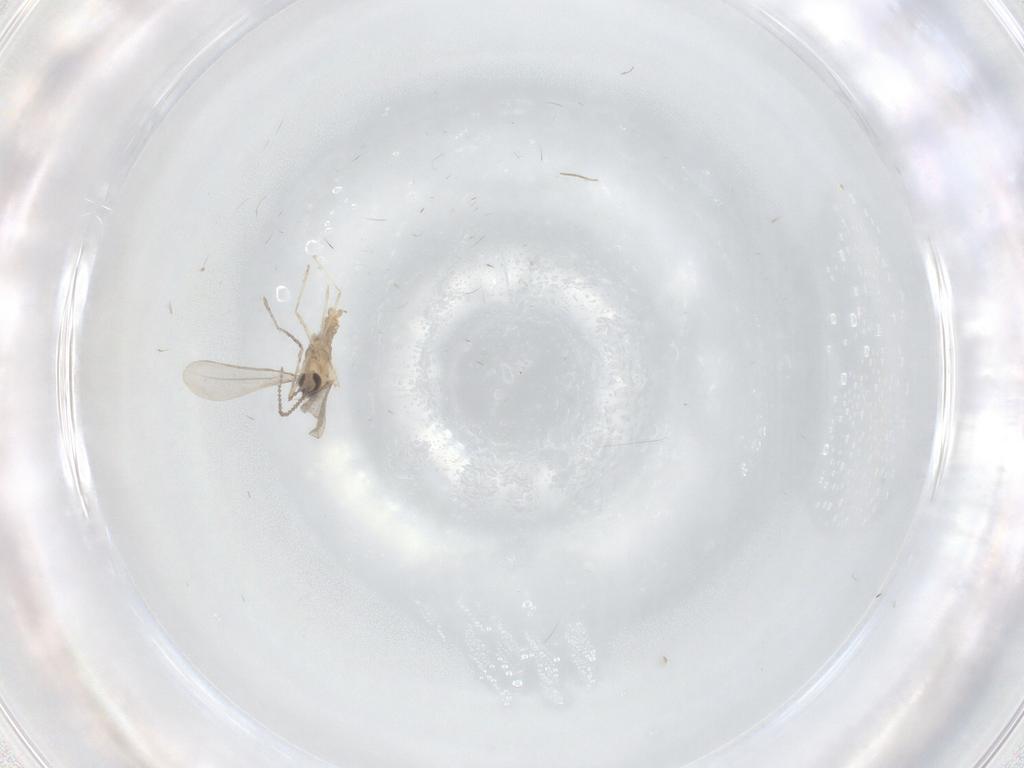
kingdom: Animalia
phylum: Arthropoda
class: Insecta
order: Diptera
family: Cecidomyiidae
